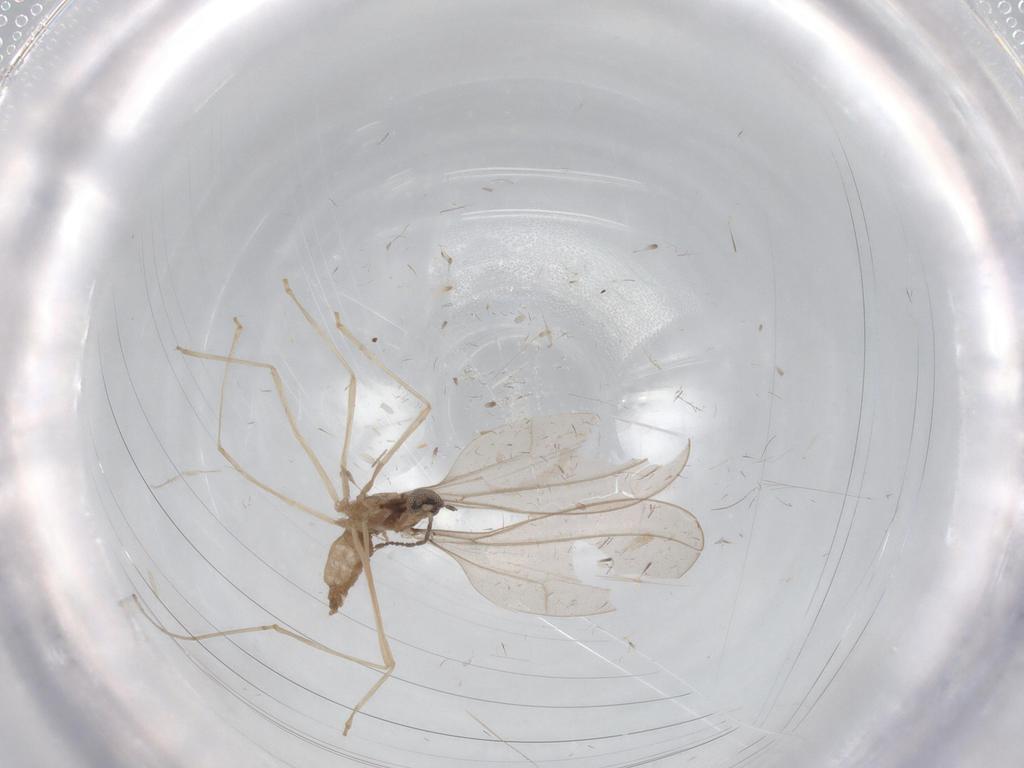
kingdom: Animalia
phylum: Arthropoda
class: Insecta
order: Diptera
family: Cecidomyiidae
